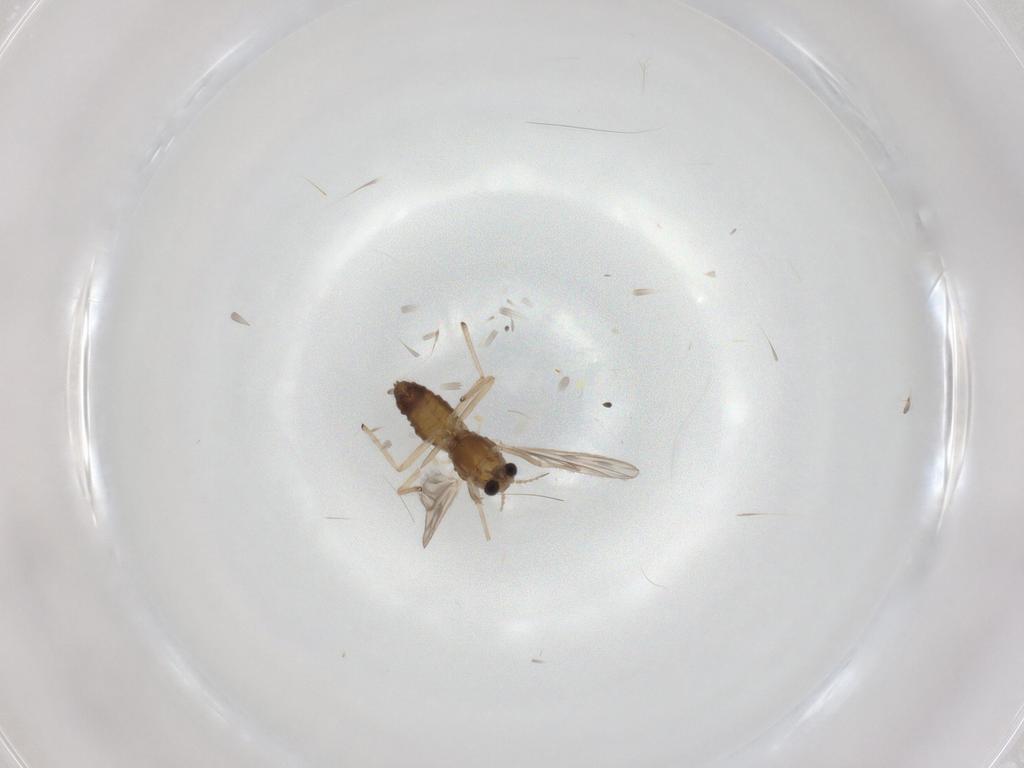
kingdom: Animalia
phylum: Arthropoda
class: Insecta
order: Diptera
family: Chironomidae
